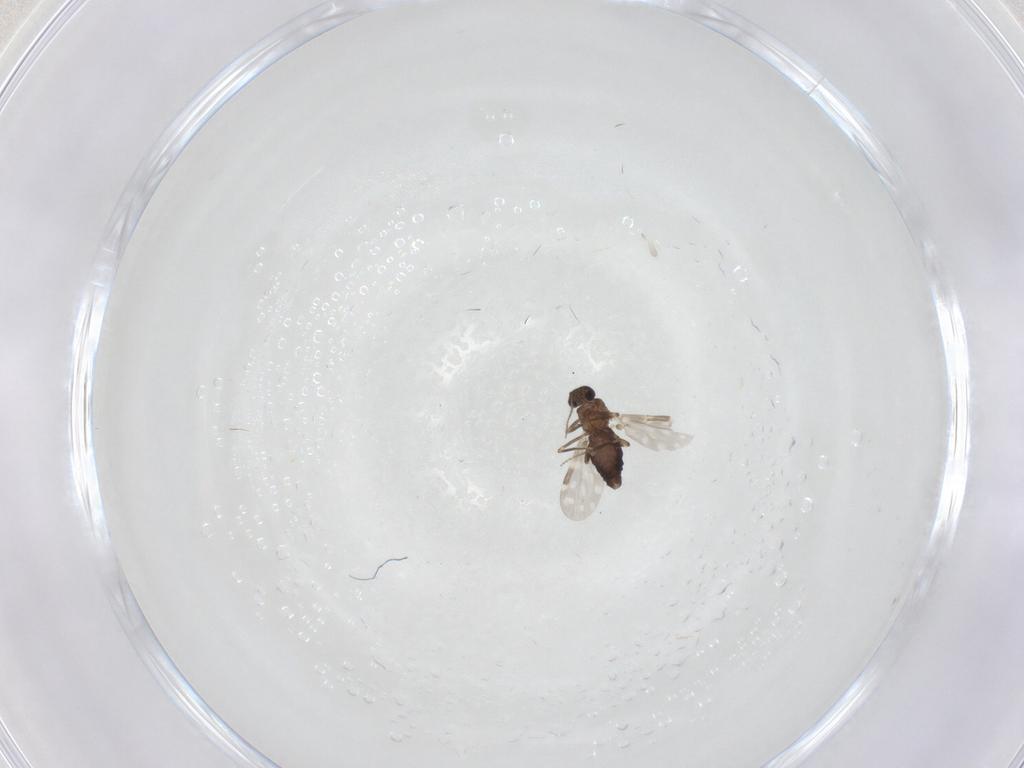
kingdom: Animalia
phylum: Arthropoda
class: Insecta
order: Diptera
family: Ceratopogonidae
